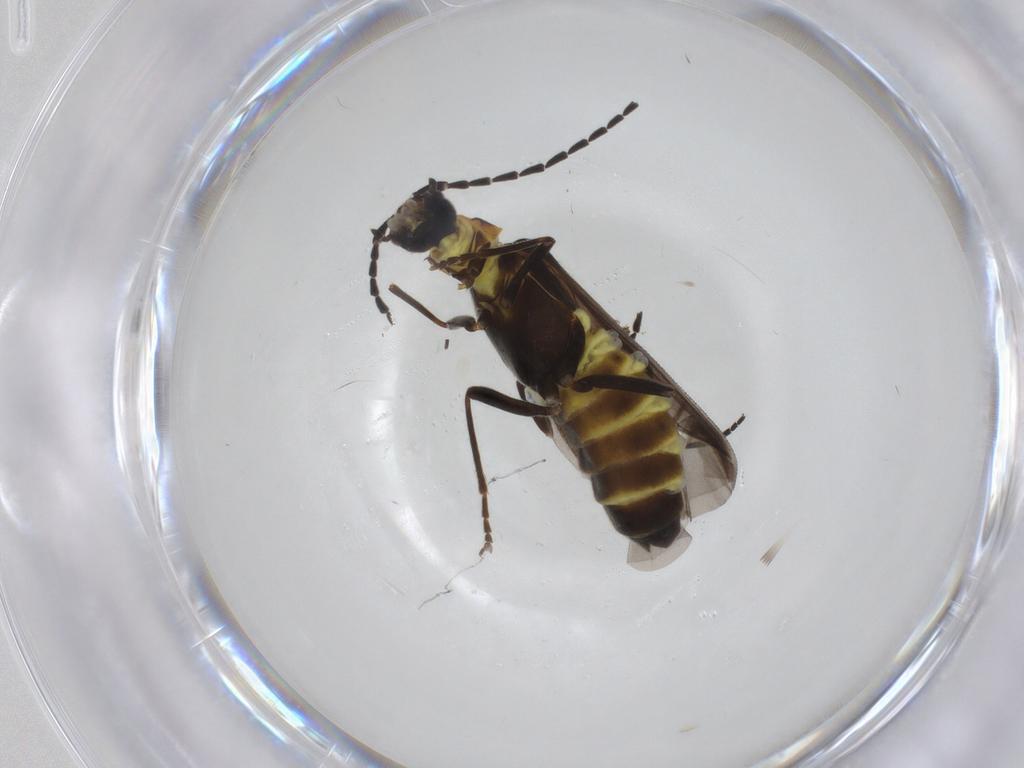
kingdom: Animalia
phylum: Arthropoda
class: Insecta
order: Coleoptera
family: Cantharidae
